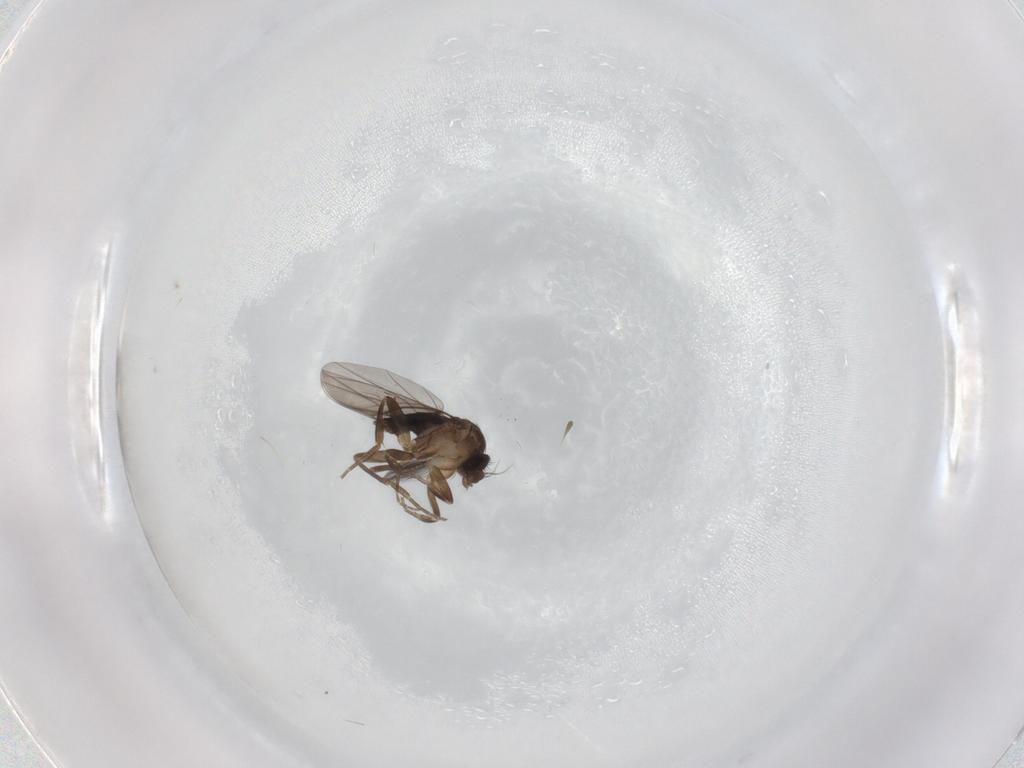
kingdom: Animalia
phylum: Arthropoda
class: Insecta
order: Diptera
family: Ceratopogonidae
